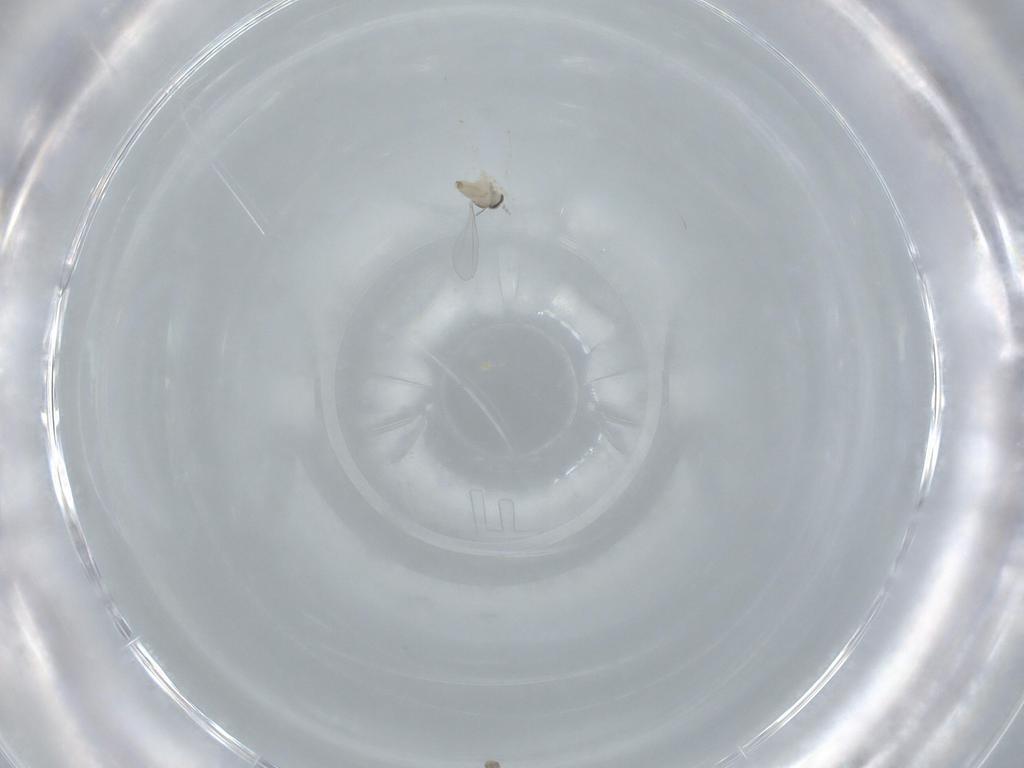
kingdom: Animalia
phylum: Arthropoda
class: Insecta
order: Diptera
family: Cecidomyiidae
